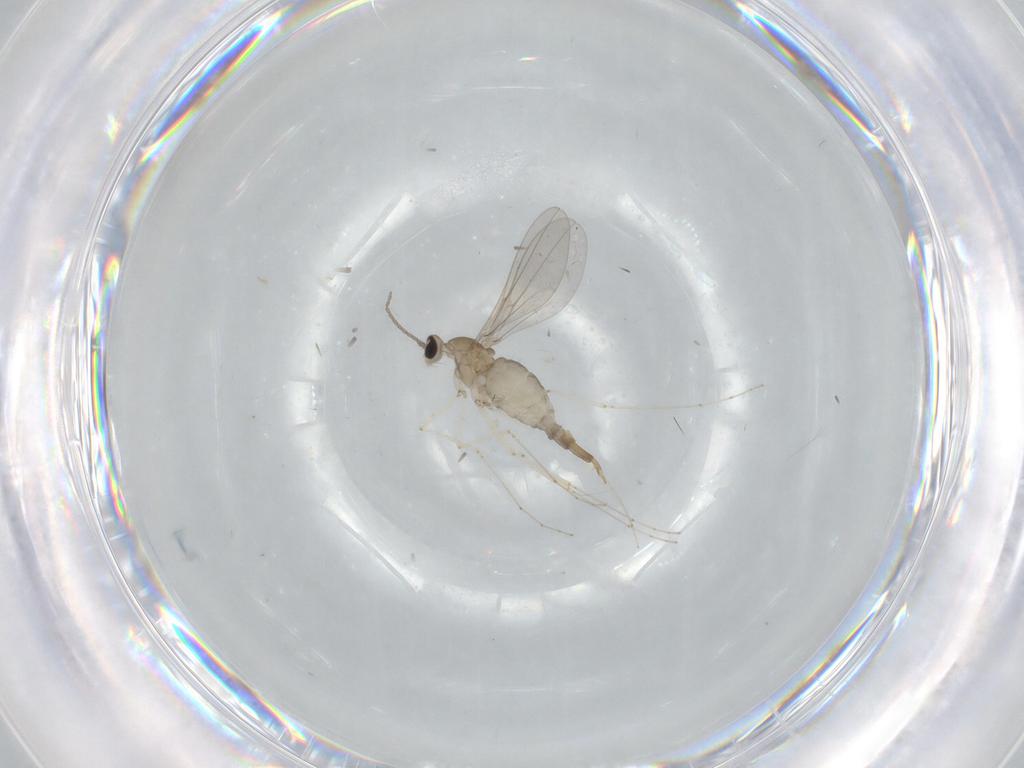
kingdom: Animalia
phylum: Arthropoda
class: Insecta
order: Diptera
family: Cecidomyiidae
